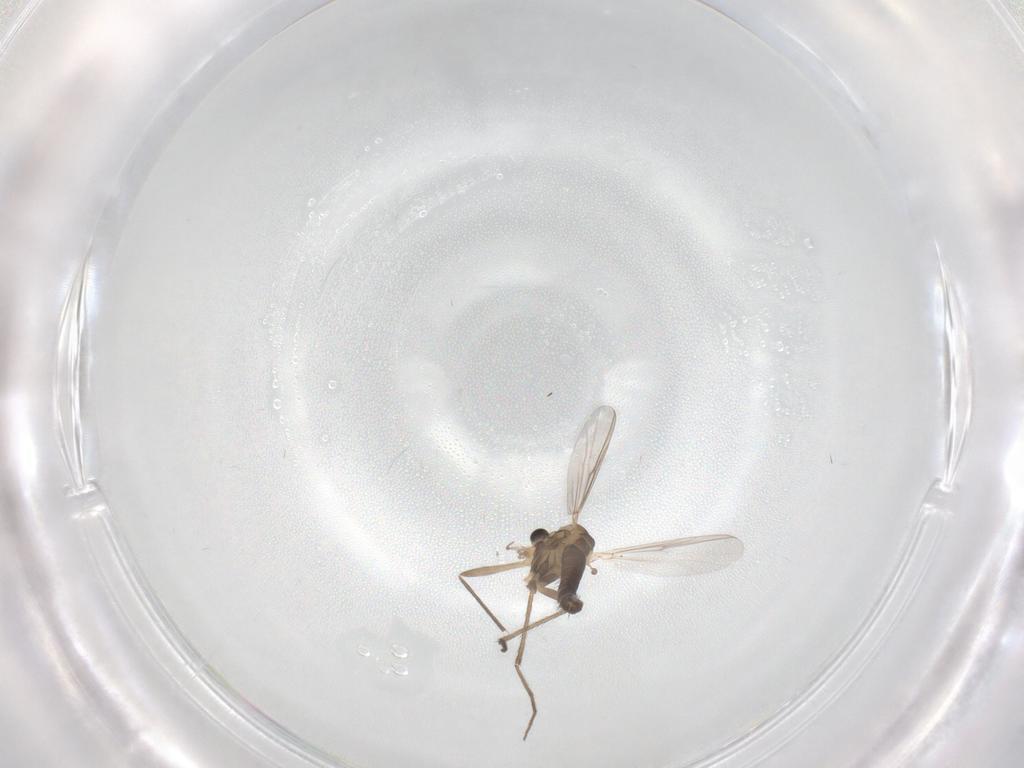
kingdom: Animalia
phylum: Arthropoda
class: Insecta
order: Diptera
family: Chironomidae
